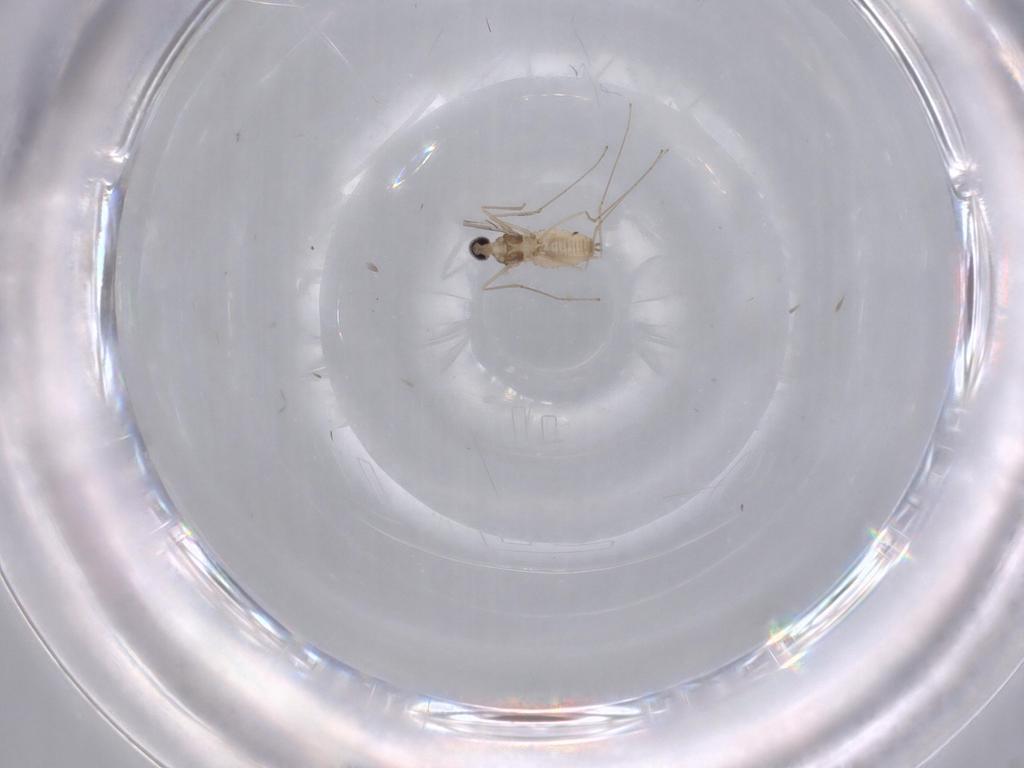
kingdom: Animalia
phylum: Arthropoda
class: Insecta
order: Diptera
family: Cecidomyiidae
